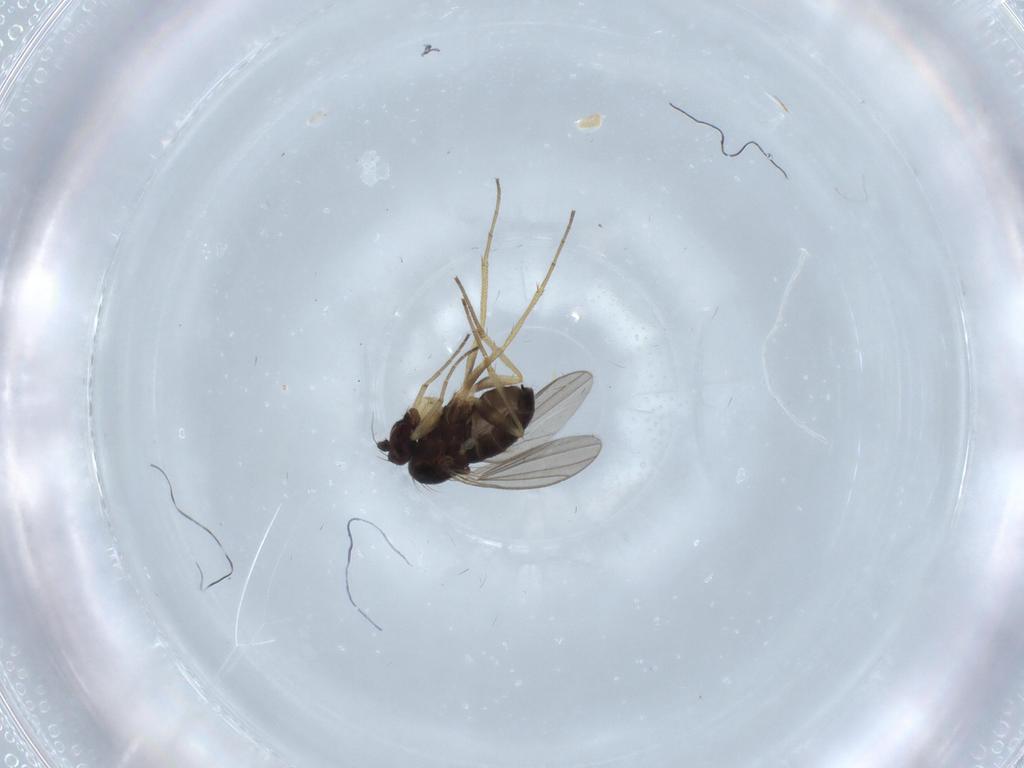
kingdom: Animalia
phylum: Arthropoda
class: Insecta
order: Diptera
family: Dolichopodidae
